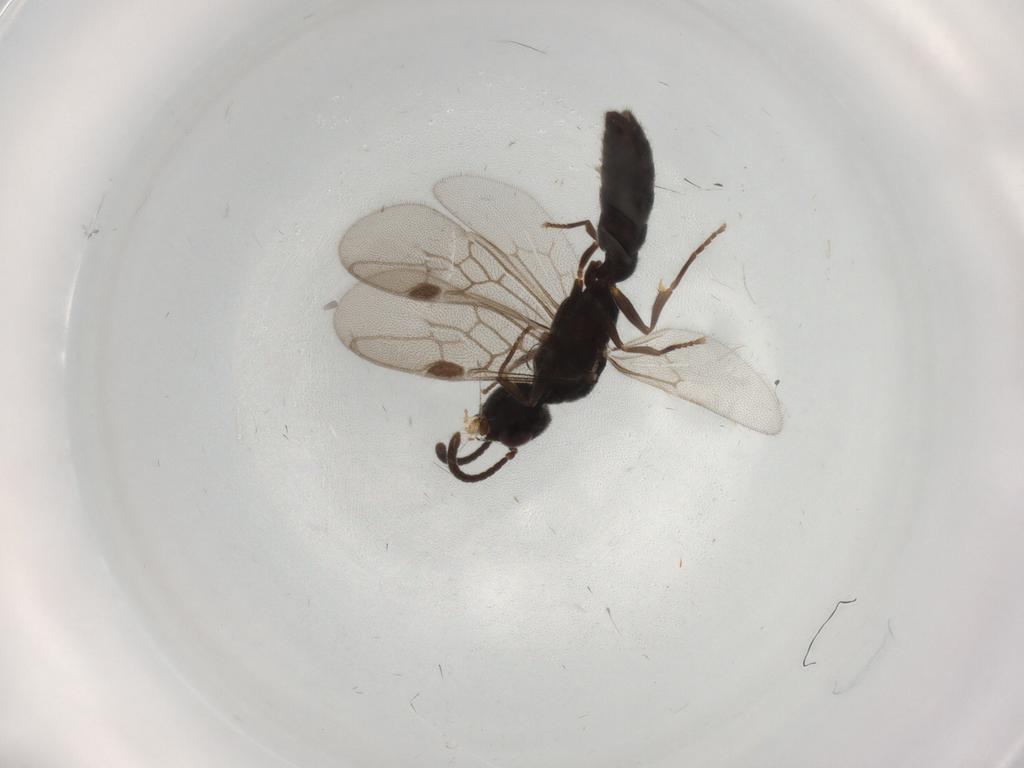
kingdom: Animalia
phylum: Arthropoda
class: Insecta
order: Hymenoptera
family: Formicidae
